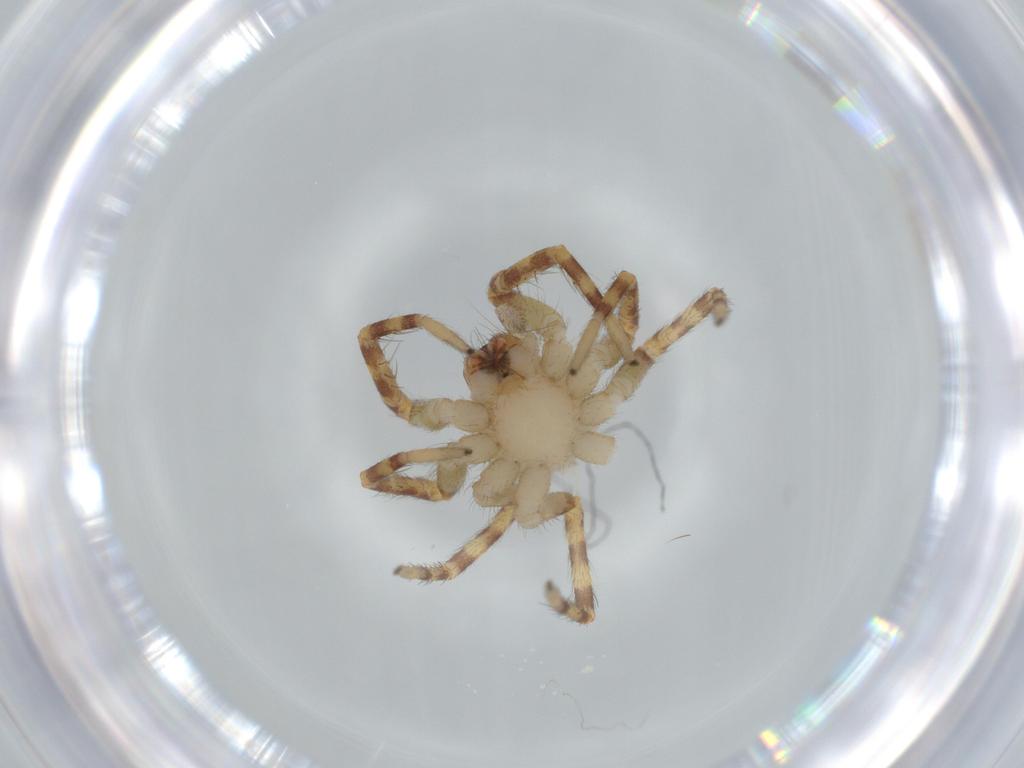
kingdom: Animalia
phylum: Arthropoda
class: Arachnida
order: Araneae
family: Corinnidae
